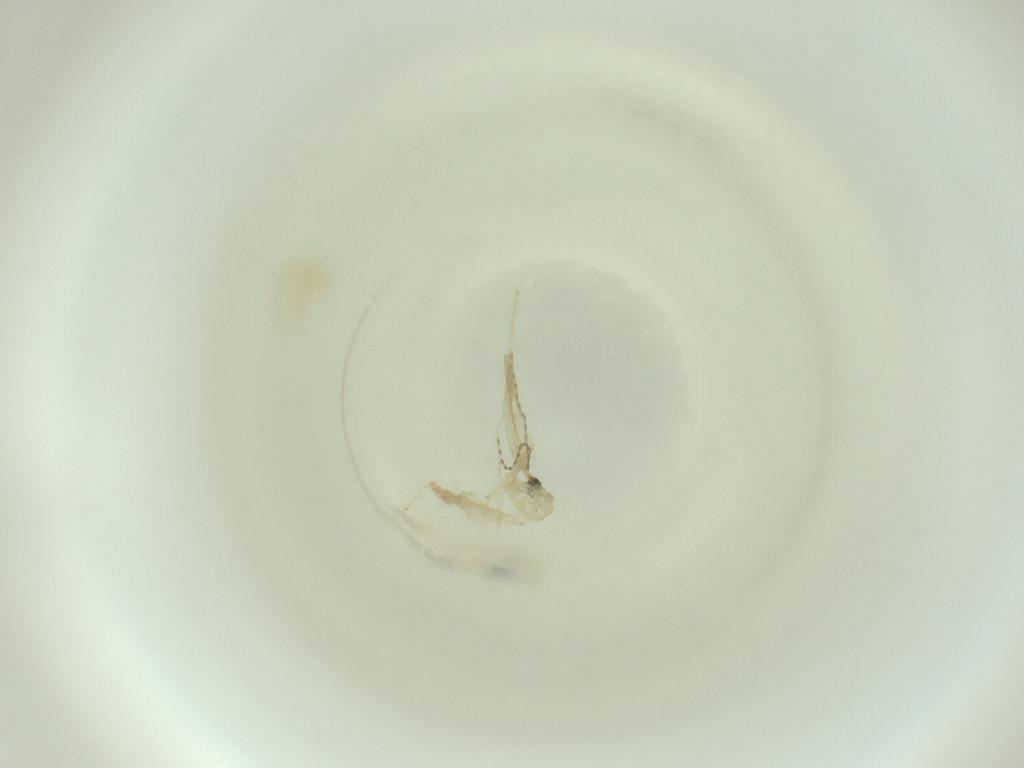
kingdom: Animalia
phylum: Arthropoda
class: Insecta
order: Diptera
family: Cecidomyiidae
